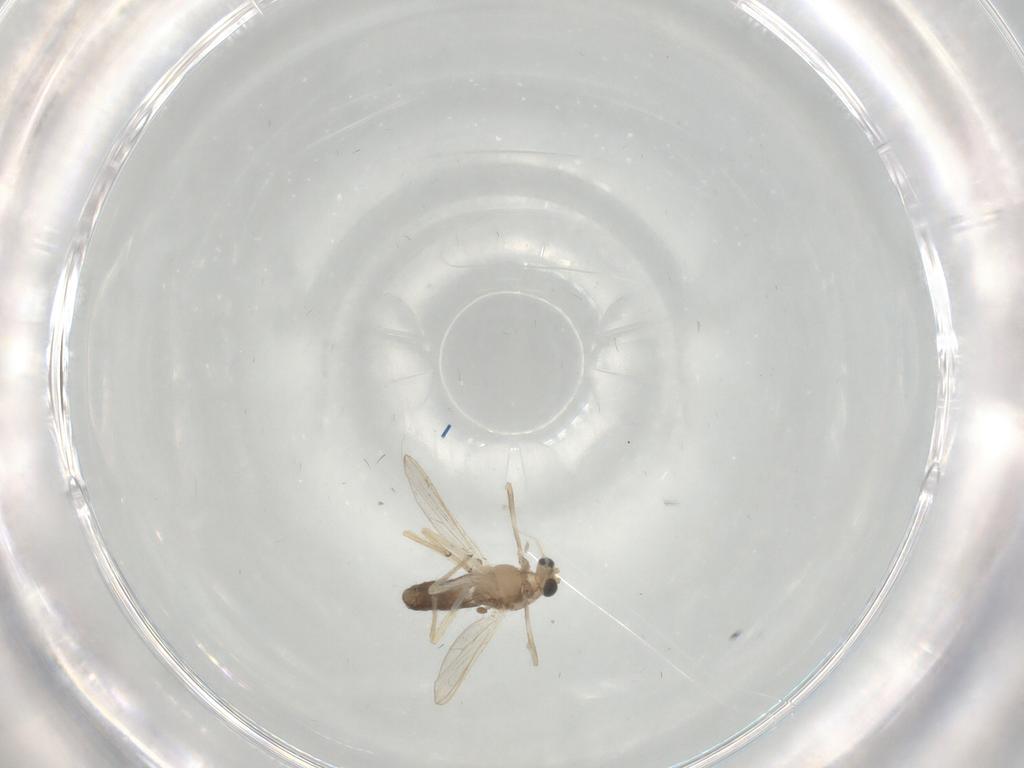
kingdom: Animalia
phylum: Arthropoda
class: Insecta
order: Diptera
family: Chironomidae
